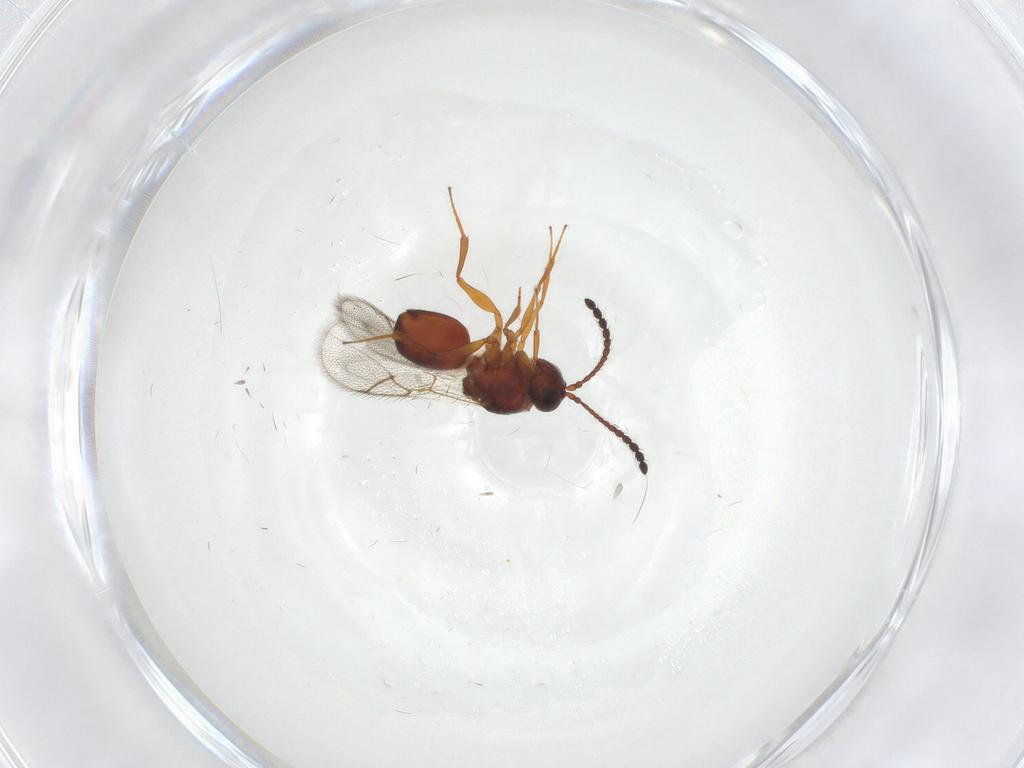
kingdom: Animalia
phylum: Arthropoda
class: Insecta
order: Hymenoptera
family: Figitidae
